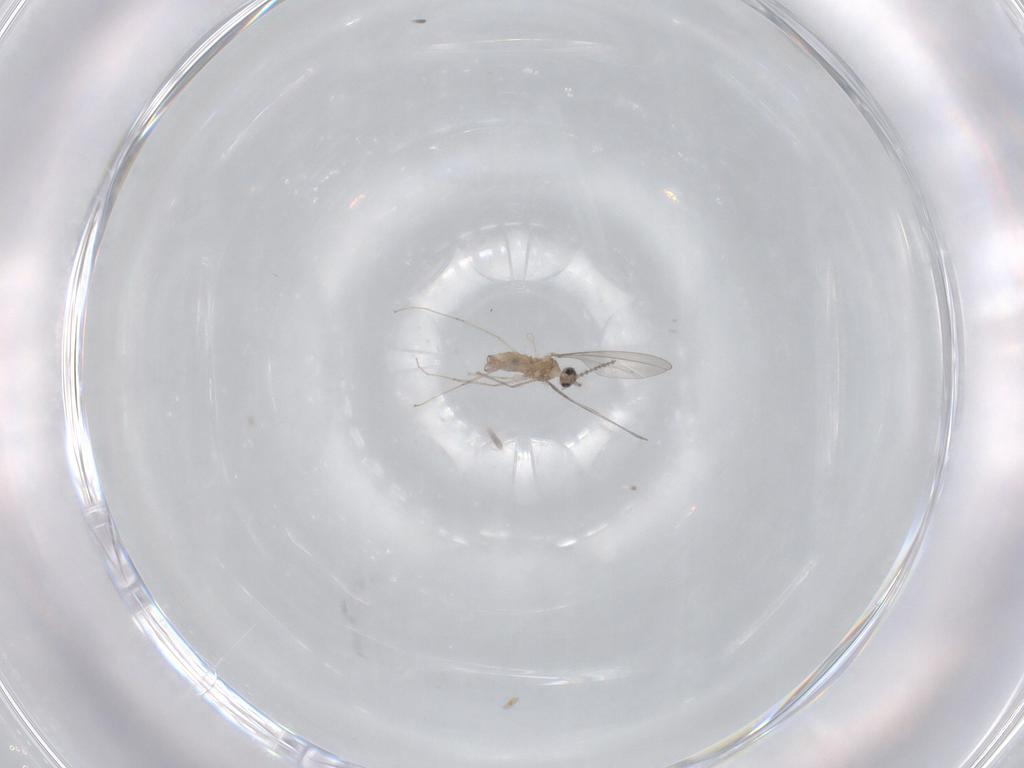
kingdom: Animalia
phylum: Arthropoda
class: Insecta
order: Diptera
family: Cecidomyiidae
